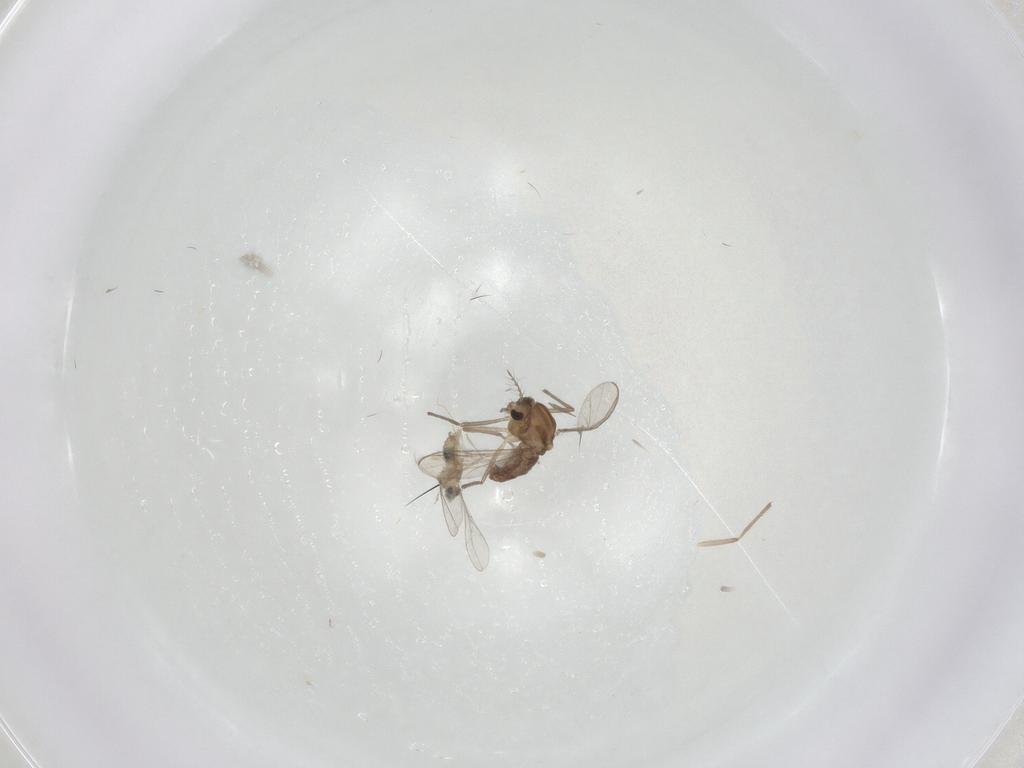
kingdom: Animalia
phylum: Arthropoda
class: Insecta
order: Diptera
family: Cecidomyiidae
